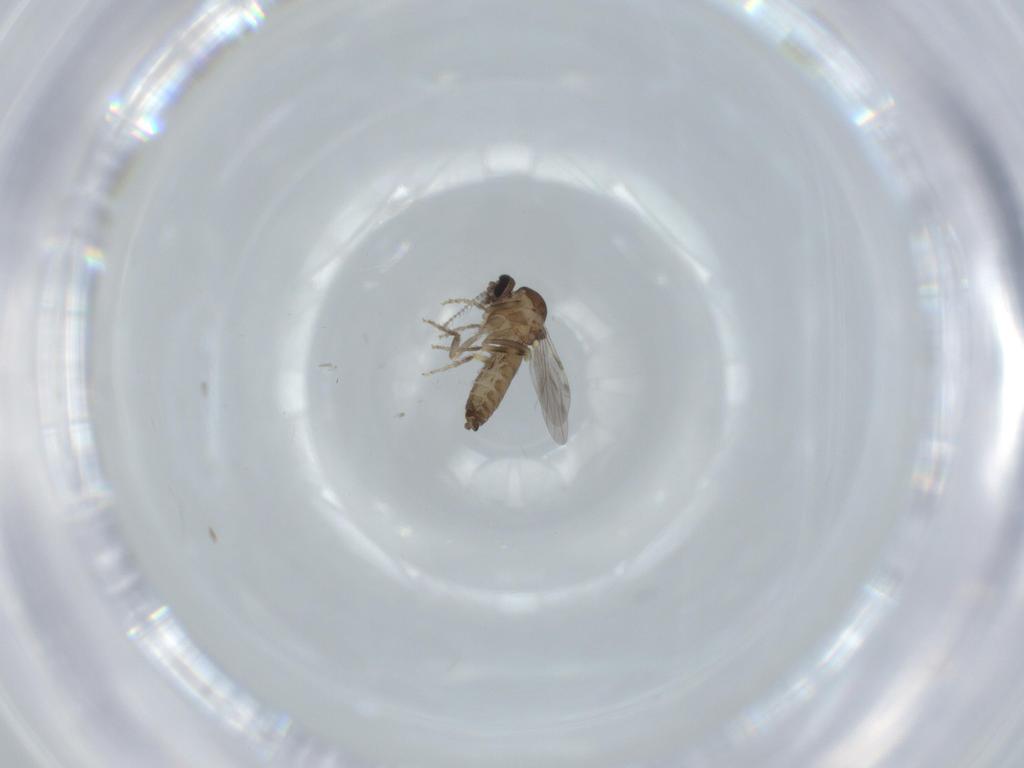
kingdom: Animalia
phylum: Arthropoda
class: Insecta
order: Diptera
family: Ceratopogonidae
